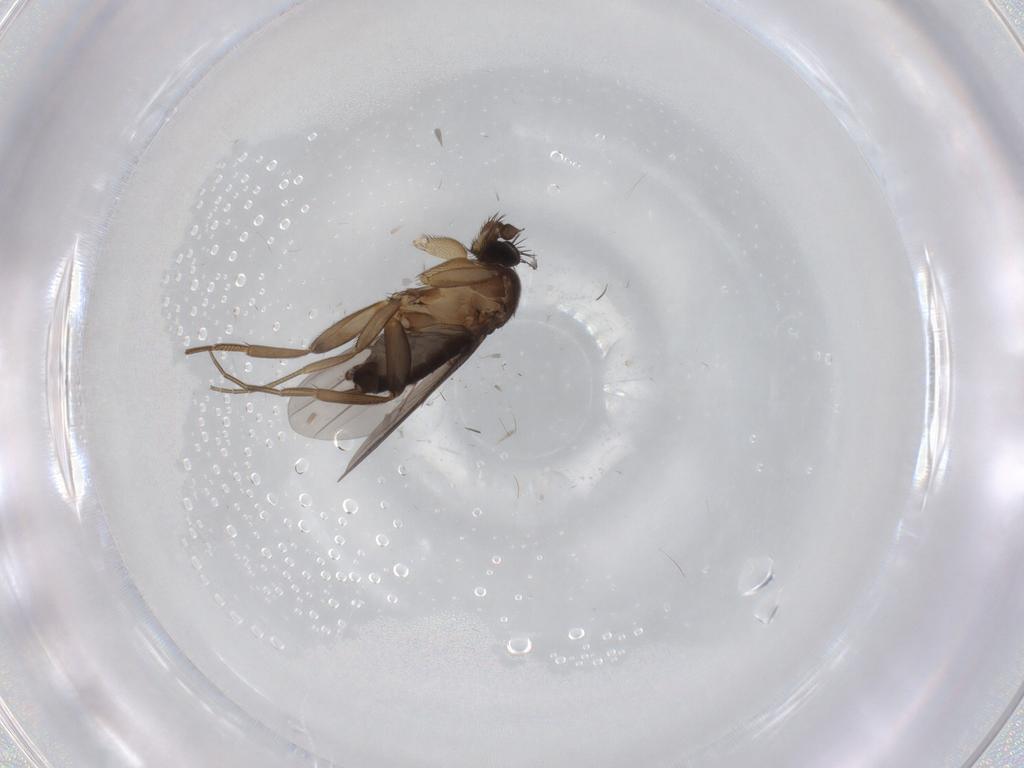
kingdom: Animalia
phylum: Arthropoda
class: Insecta
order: Diptera
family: Phoridae
